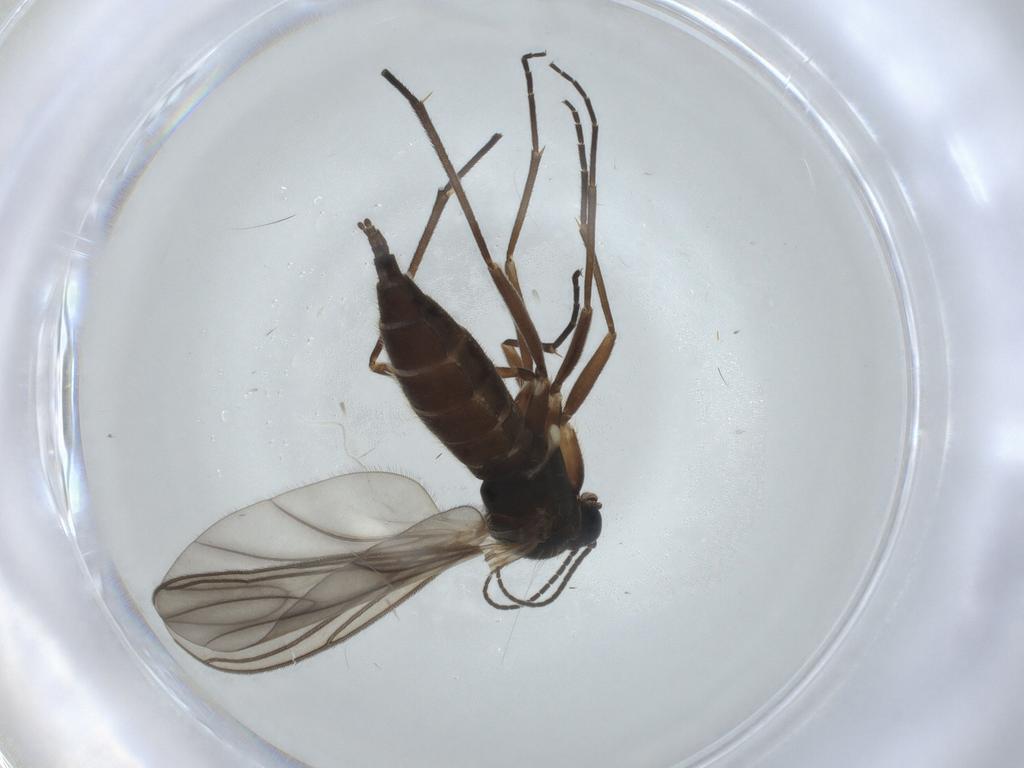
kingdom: Animalia
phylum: Arthropoda
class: Insecta
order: Diptera
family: Sciaridae
